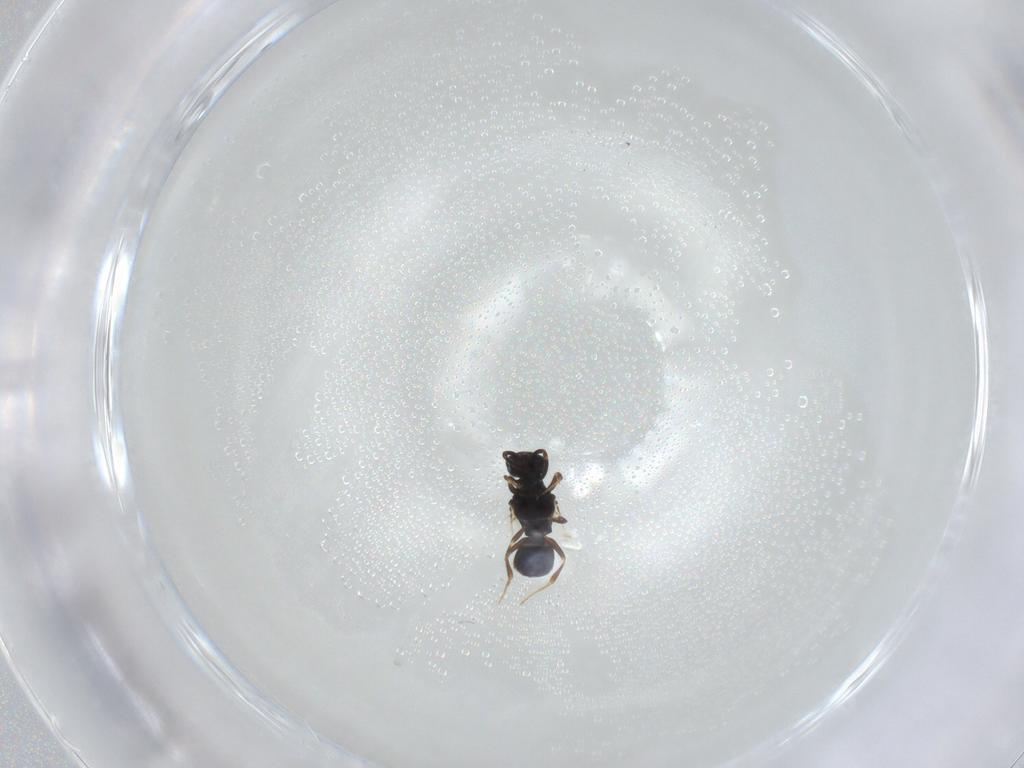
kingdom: Animalia
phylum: Arthropoda
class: Insecta
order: Hymenoptera
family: Bethylidae
